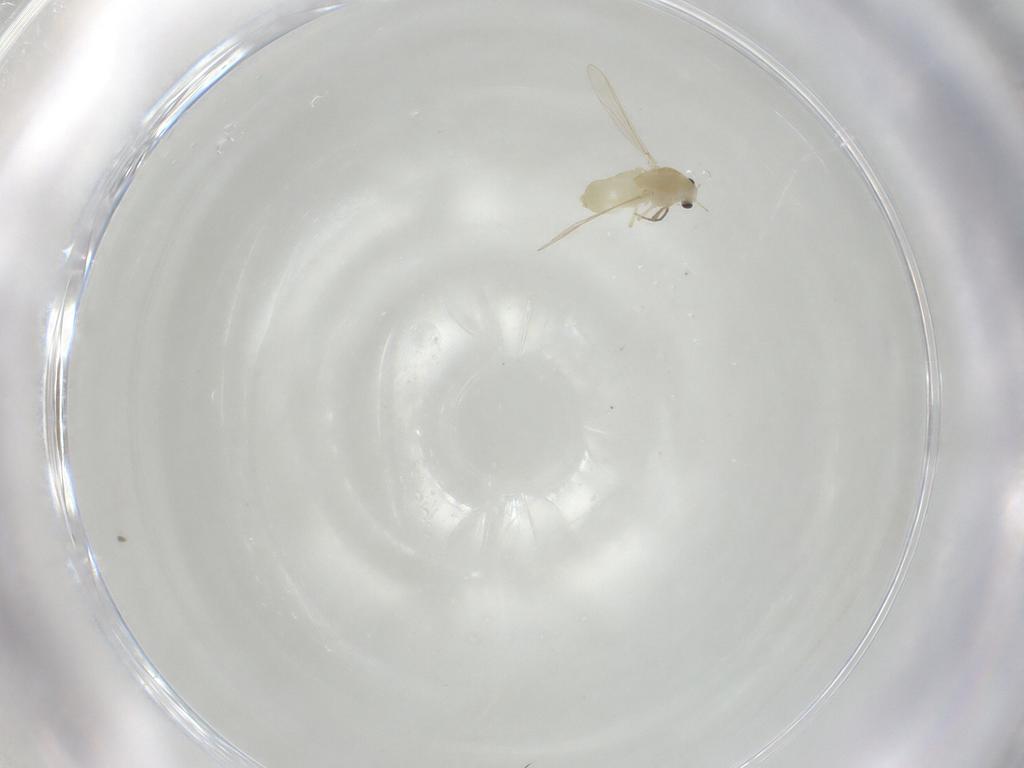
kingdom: Animalia
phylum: Arthropoda
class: Insecta
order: Diptera
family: Chironomidae
